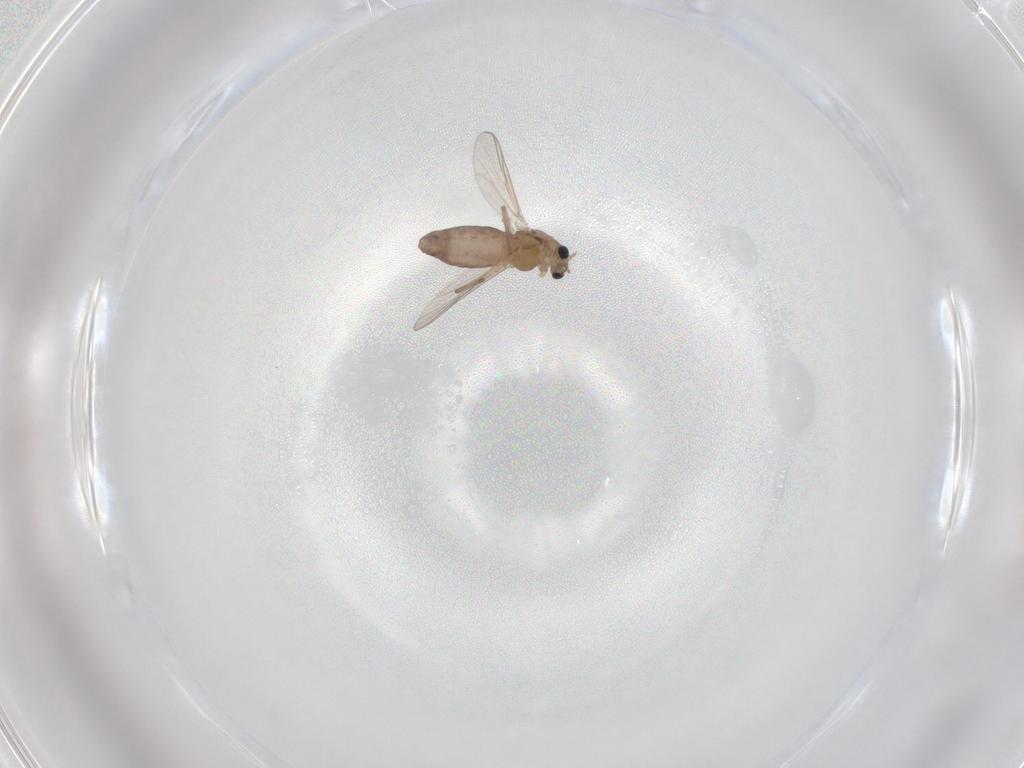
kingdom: Animalia
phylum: Arthropoda
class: Insecta
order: Diptera
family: Chironomidae
